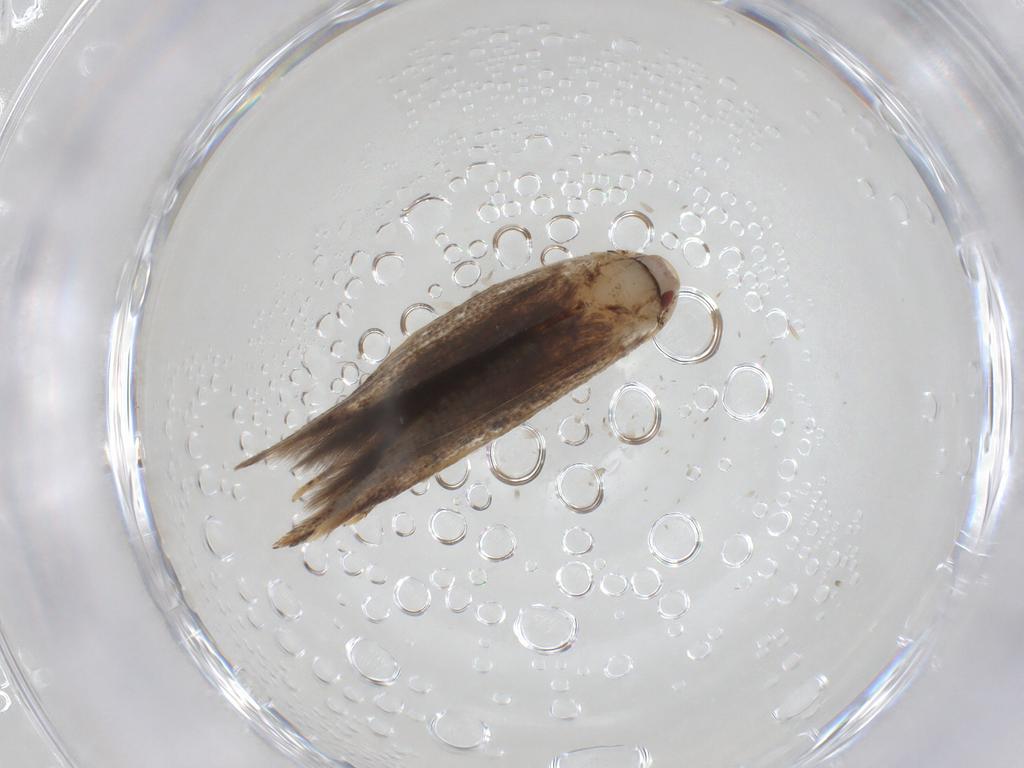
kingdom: Animalia
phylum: Arthropoda
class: Insecta
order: Lepidoptera
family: Cosmopterigidae
